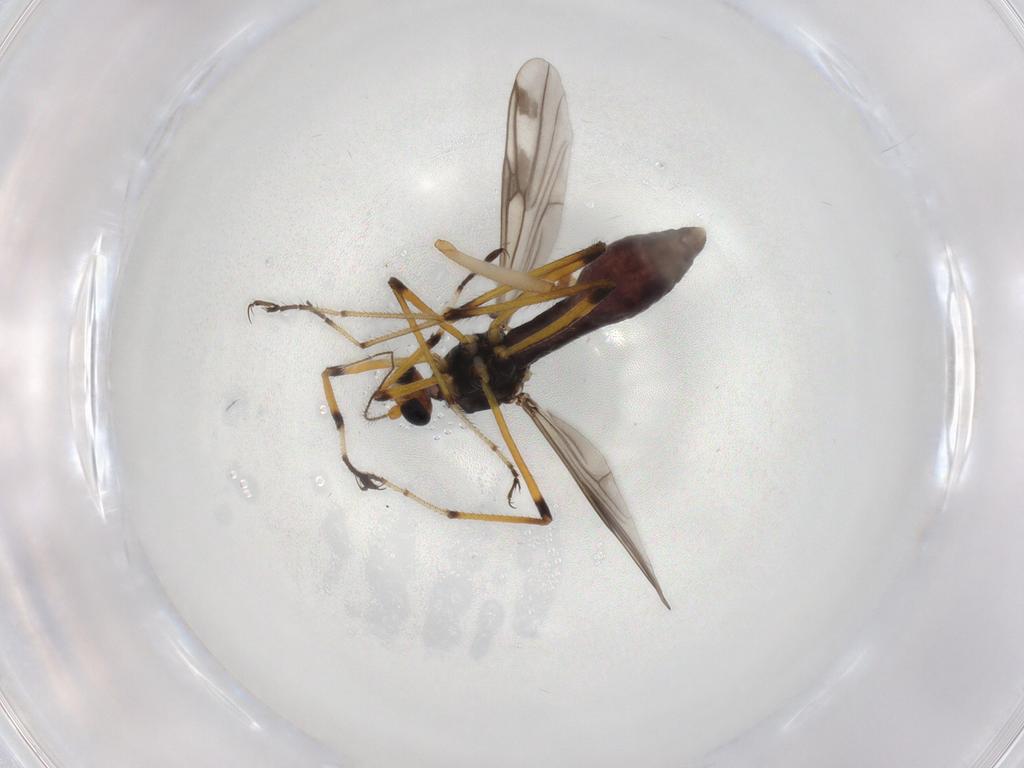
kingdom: Animalia
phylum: Arthropoda
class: Insecta
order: Diptera
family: Ceratopogonidae
